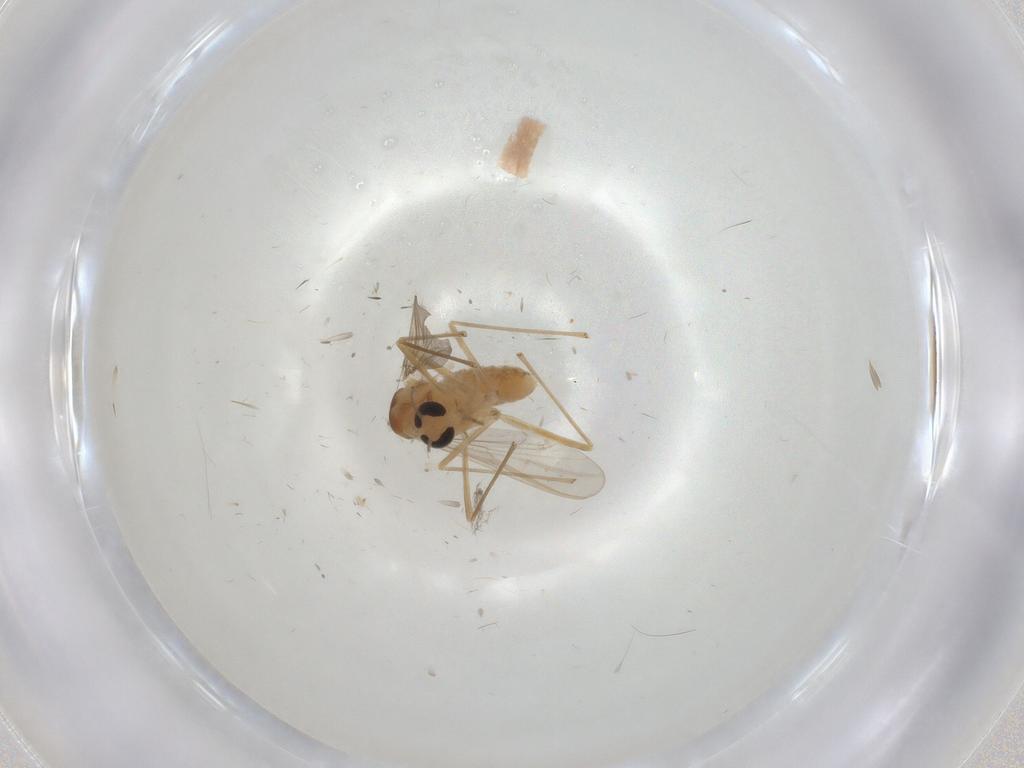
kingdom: Animalia
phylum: Arthropoda
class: Insecta
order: Diptera
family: Chironomidae
